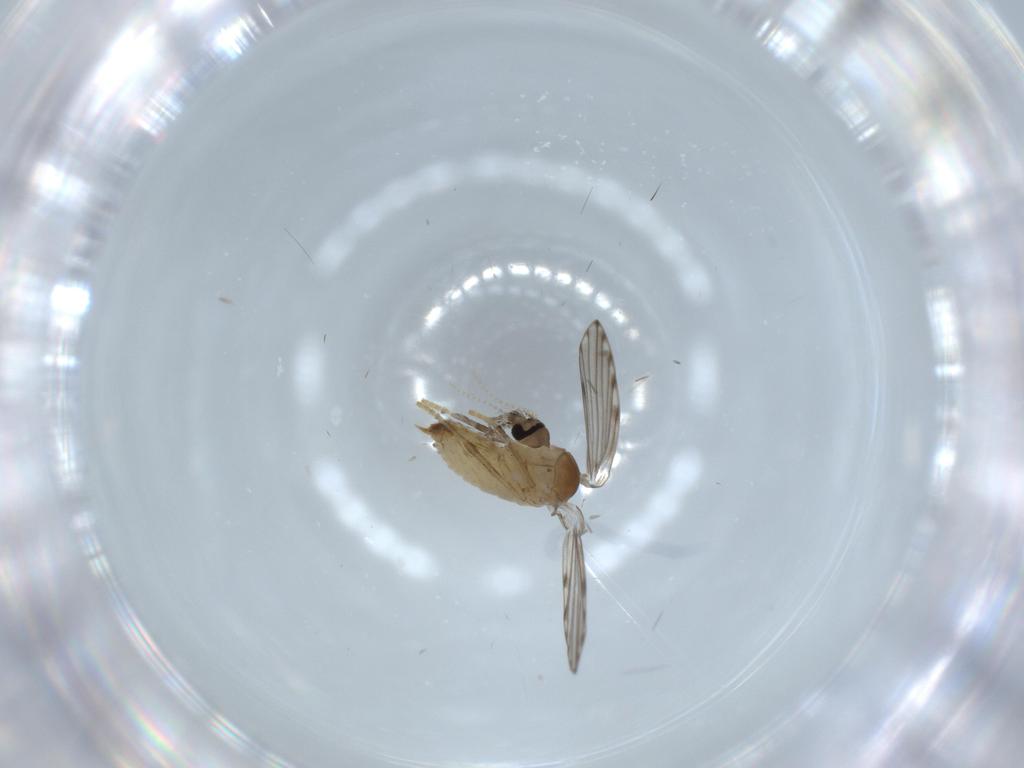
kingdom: Animalia
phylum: Arthropoda
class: Insecta
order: Diptera
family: Psychodidae
